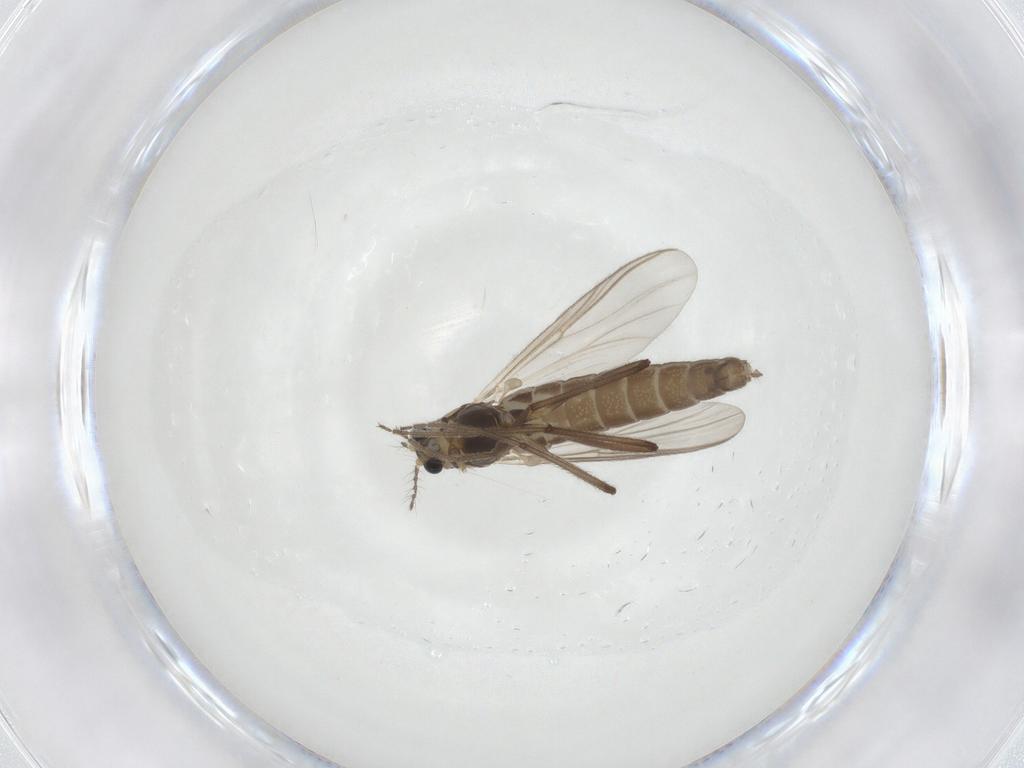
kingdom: Animalia
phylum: Arthropoda
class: Insecta
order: Diptera
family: Chironomidae
